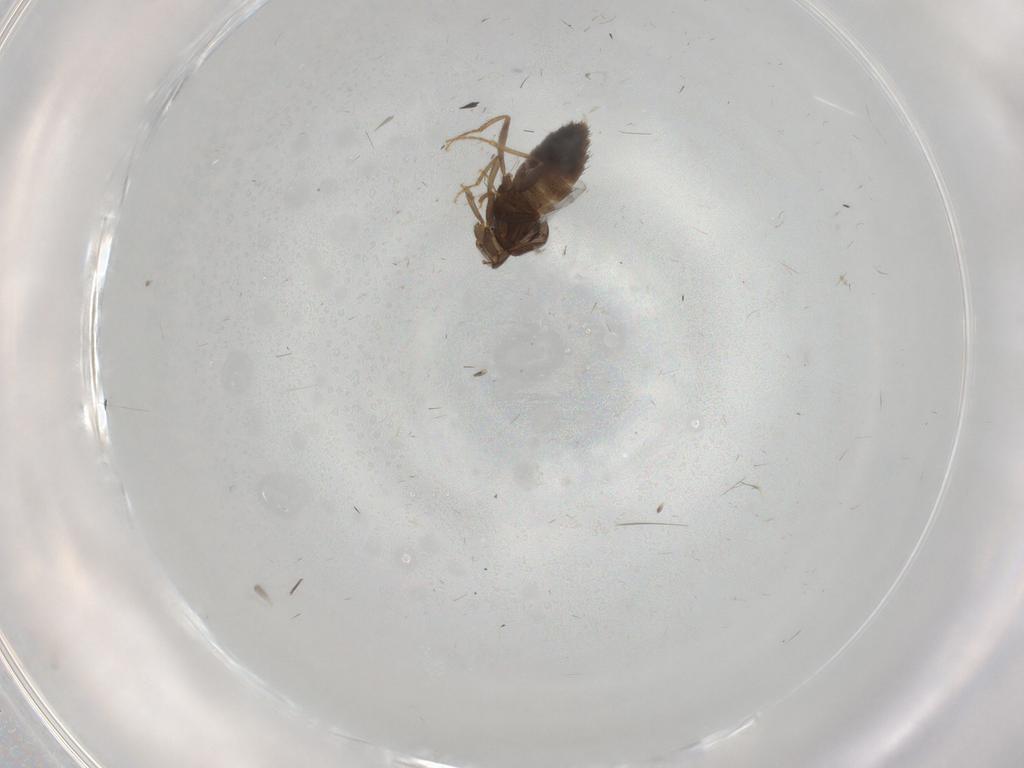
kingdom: Animalia
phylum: Arthropoda
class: Insecta
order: Coleoptera
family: Staphylinidae
